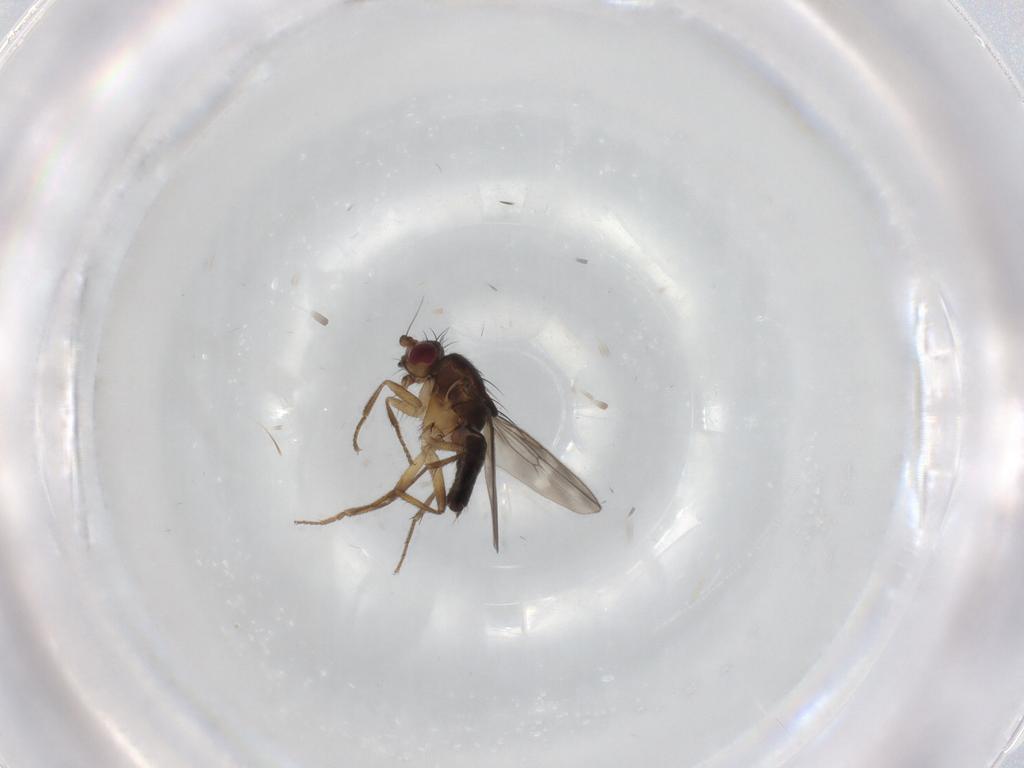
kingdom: Animalia
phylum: Arthropoda
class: Insecta
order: Diptera
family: Sphaeroceridae
